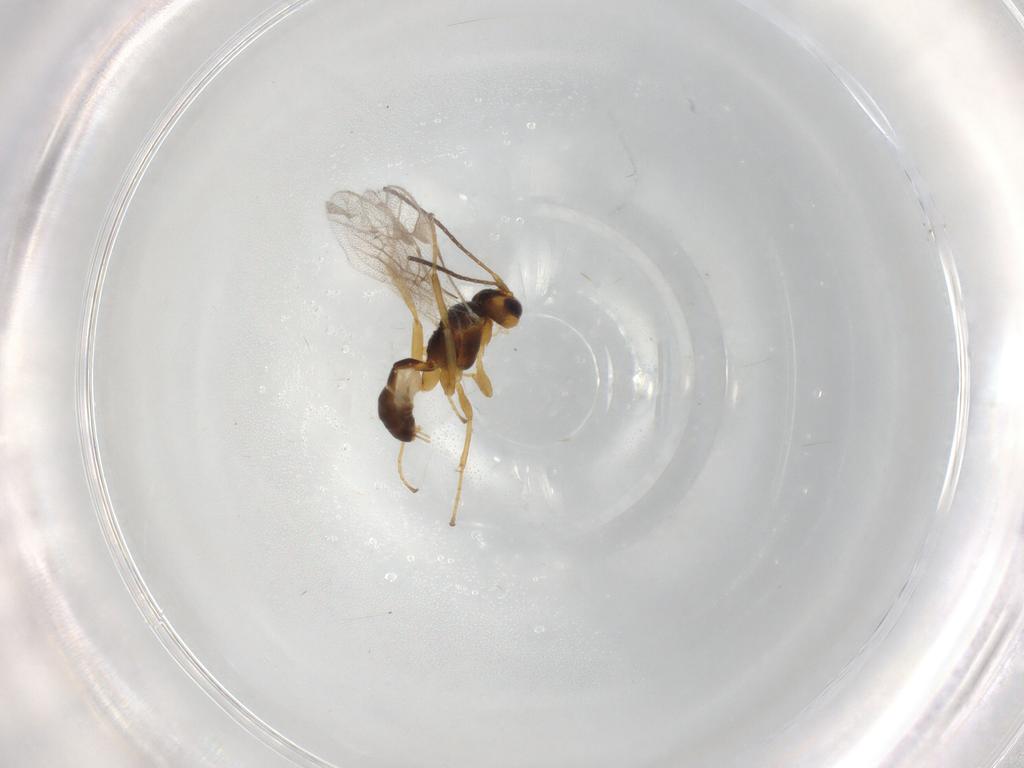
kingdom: Animalia
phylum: Arthropoda
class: Insecta
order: Hymenoptera
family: Ichneumonidae
